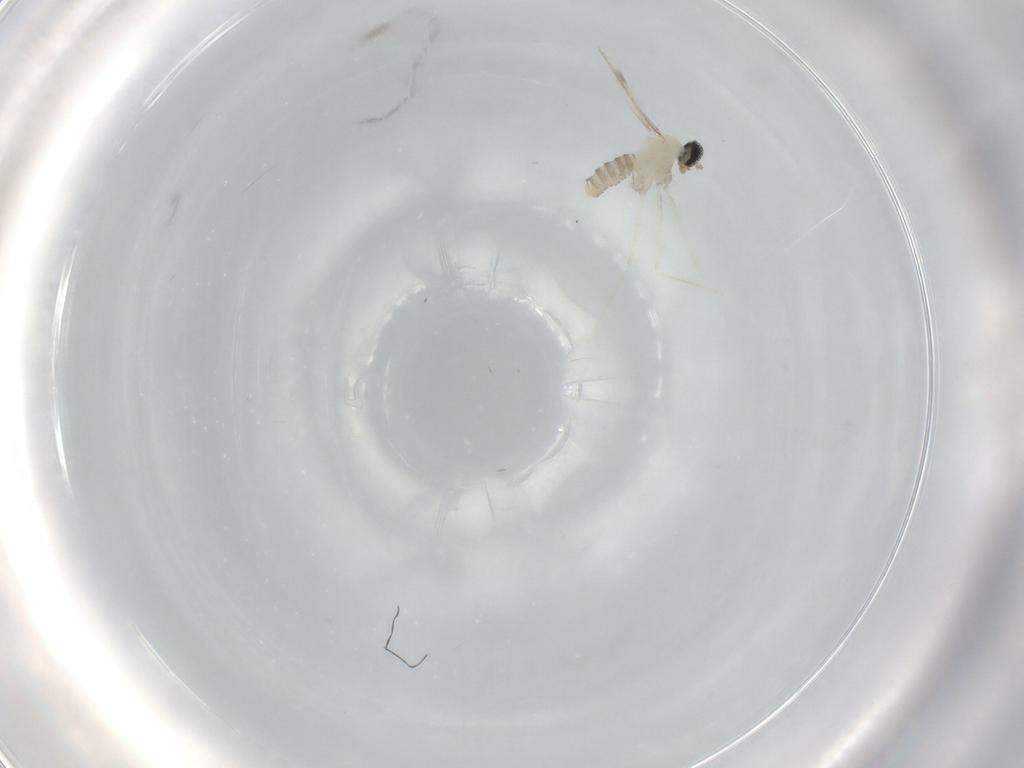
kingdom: Animalia
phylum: Arthropoda
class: Insecta
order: Diptera
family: Cecidomyiidae
